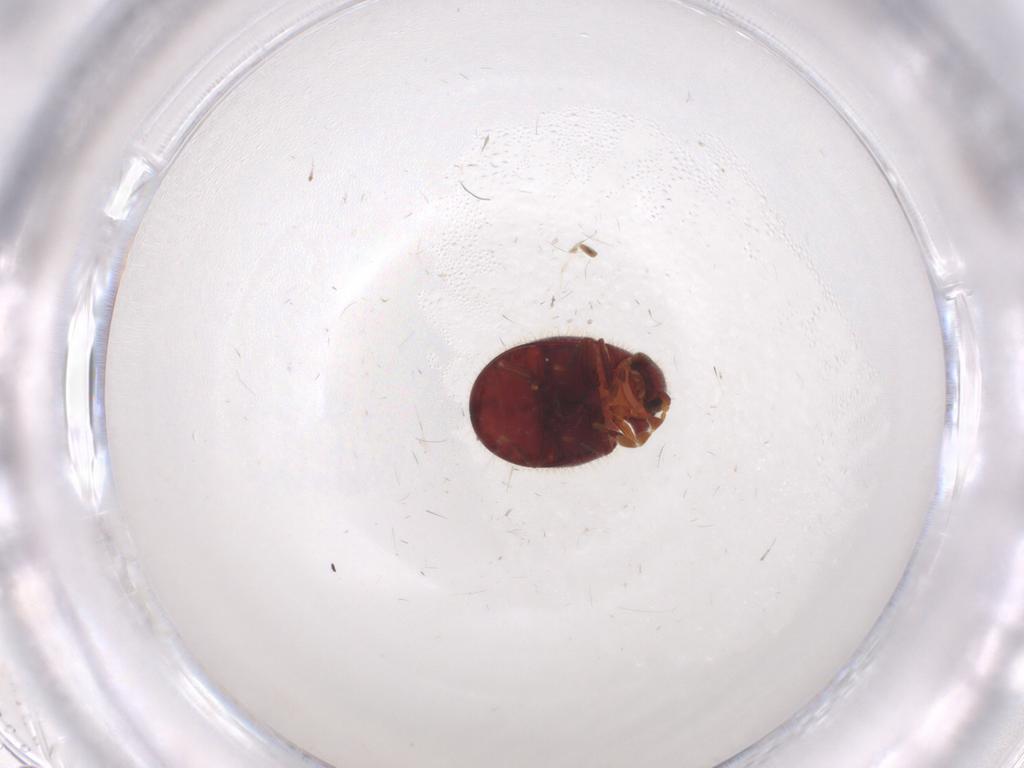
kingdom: Animalia
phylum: Arthropoda
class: Insecta
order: Coleoptera
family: Ptinidae
